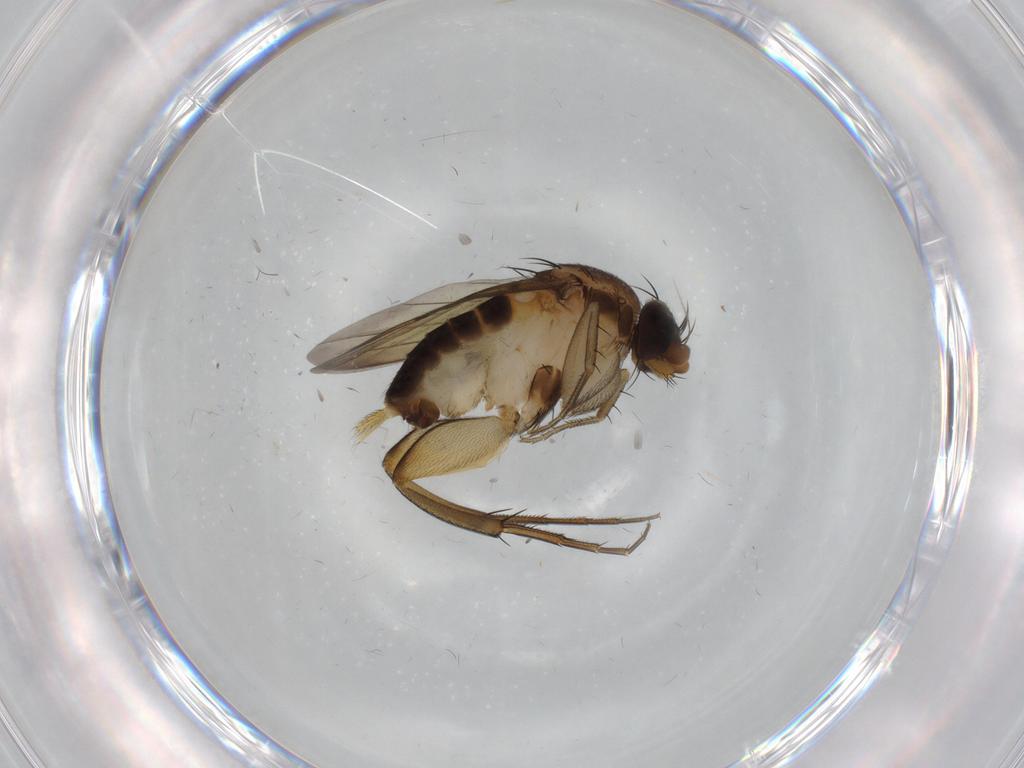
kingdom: Animalia
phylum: Arthropoda
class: Insecta
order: Diptera
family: Phoridae
